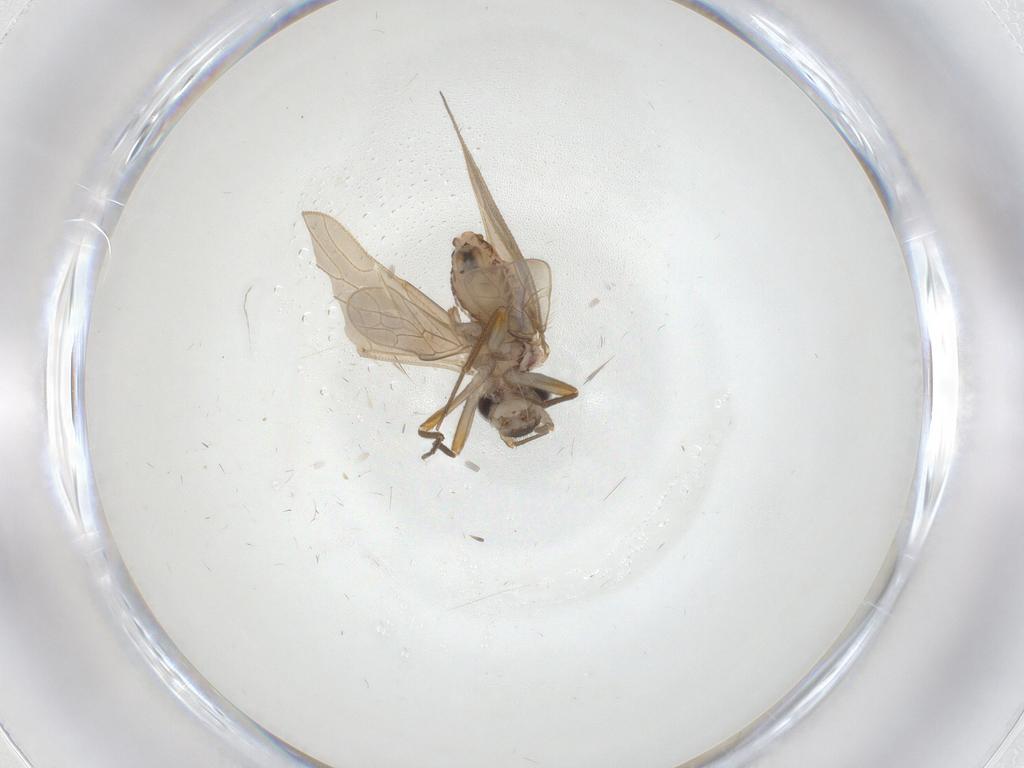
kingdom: Animalia
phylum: Arthropoda
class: Insecta
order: Psocodea
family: Mesopsocidae
